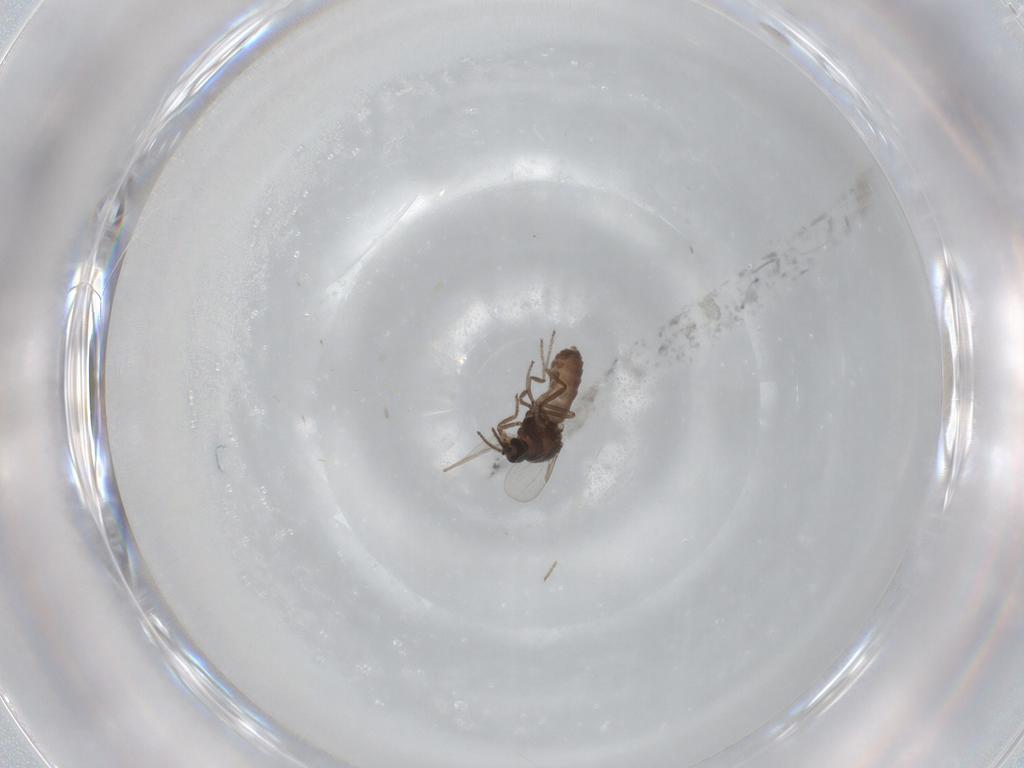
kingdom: Animalia
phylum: Arthropoda
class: Insecta
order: Diptera
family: Ceratopogonidae
